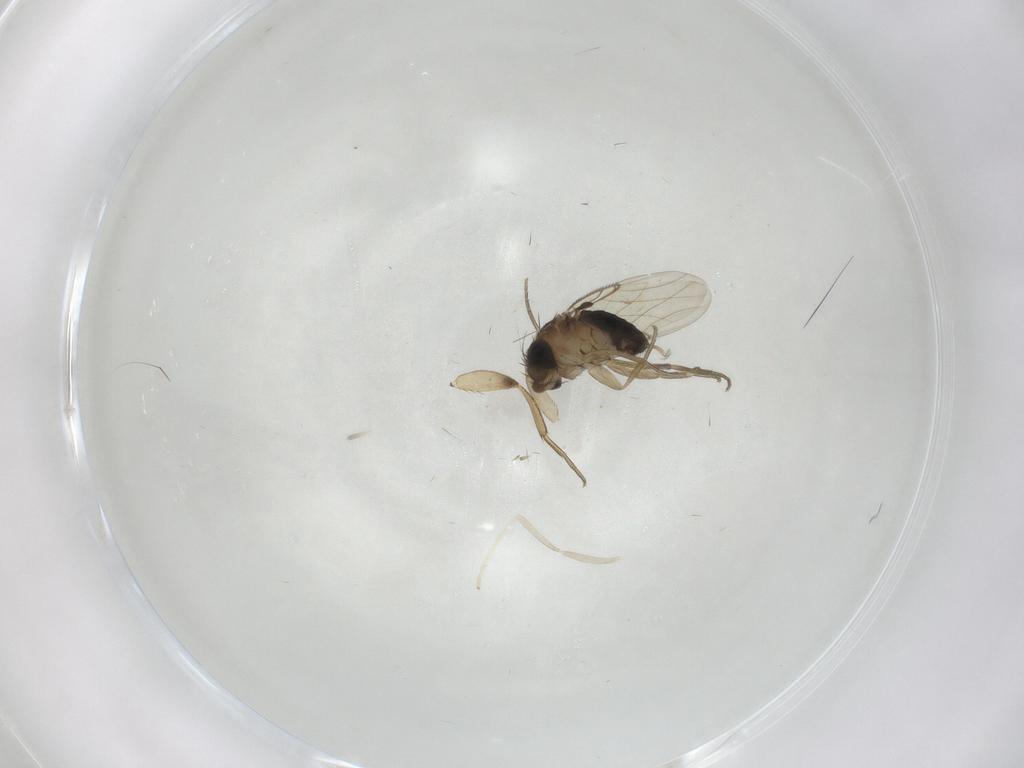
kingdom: Animalia
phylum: Arthropoda
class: Insecta
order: Diptera
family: Phoridae
